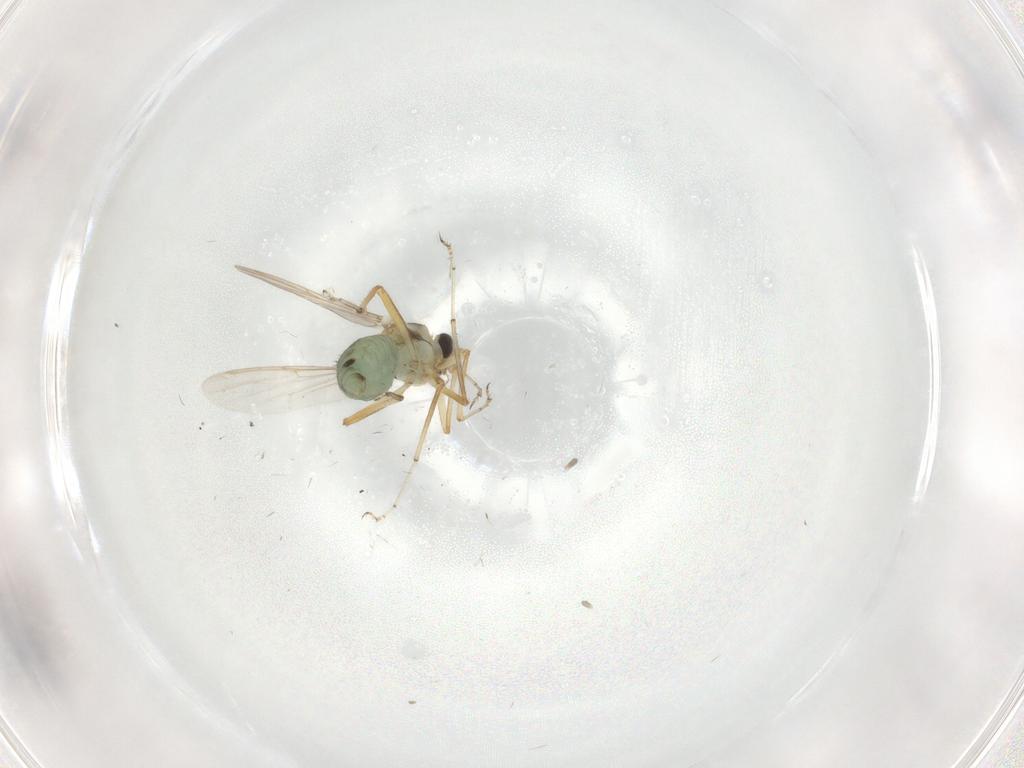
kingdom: Animalia
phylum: Arthropoda
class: Insecta
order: Diptera
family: Ceratopogonidae
